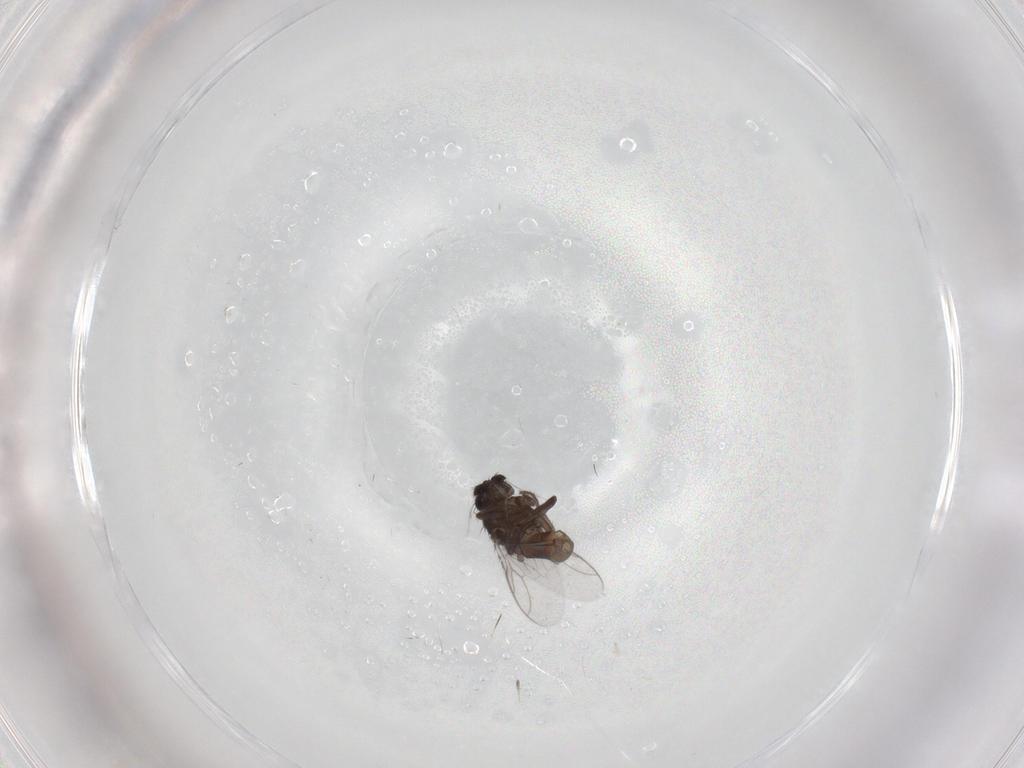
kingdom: Animalia
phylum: Arthropoda
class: Insecta
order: Diptera
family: Phoridae
